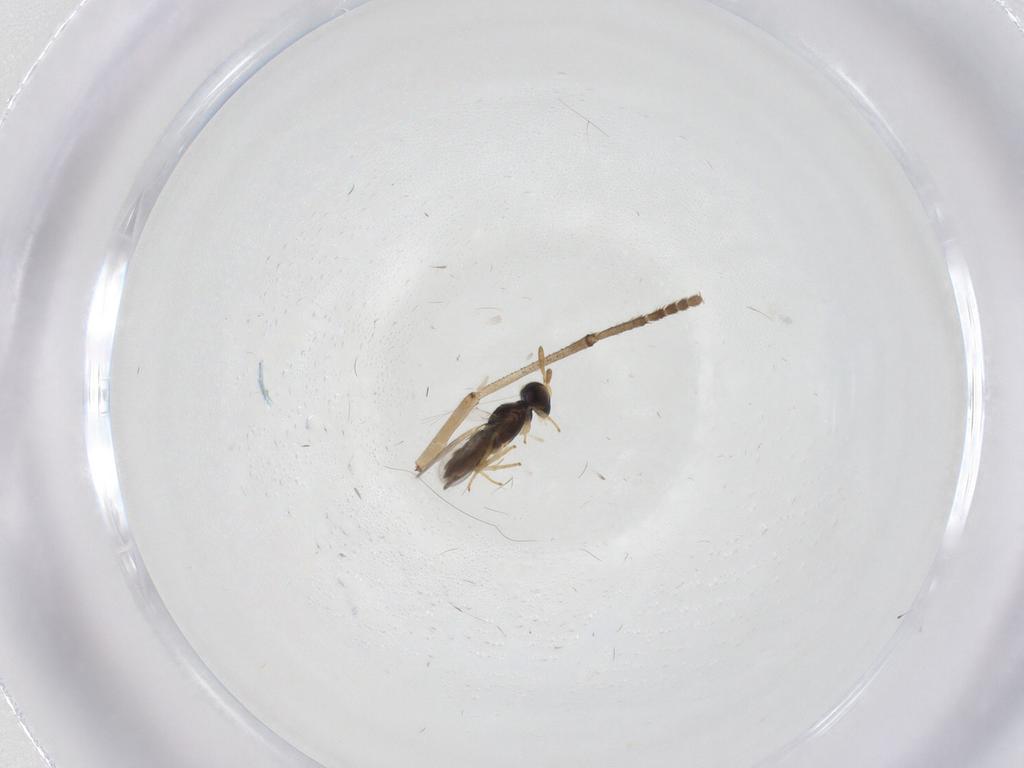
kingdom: Animalia
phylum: Arthropoda
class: Insecta
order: Diptera
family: Psychodidae
